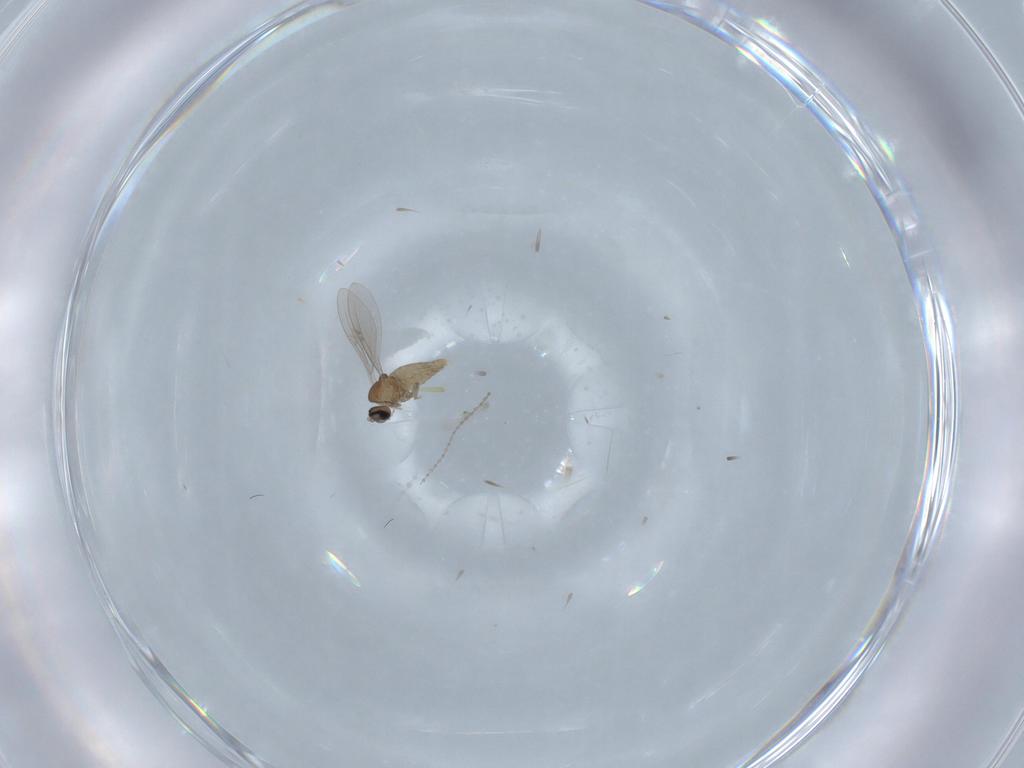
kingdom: Animalia
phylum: Arthropoda
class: Insecta
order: Diptera
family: Cecidomyiidae
